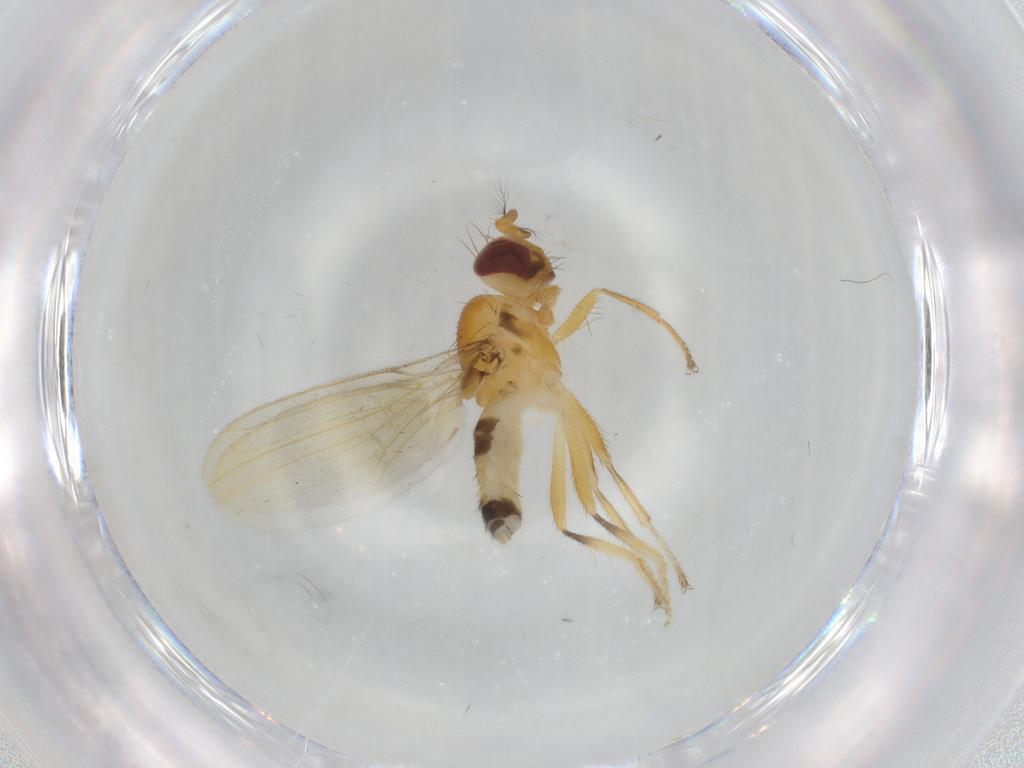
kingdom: Animalia
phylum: Arthropoda
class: Insecta
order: Diptera
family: Periscelididae
